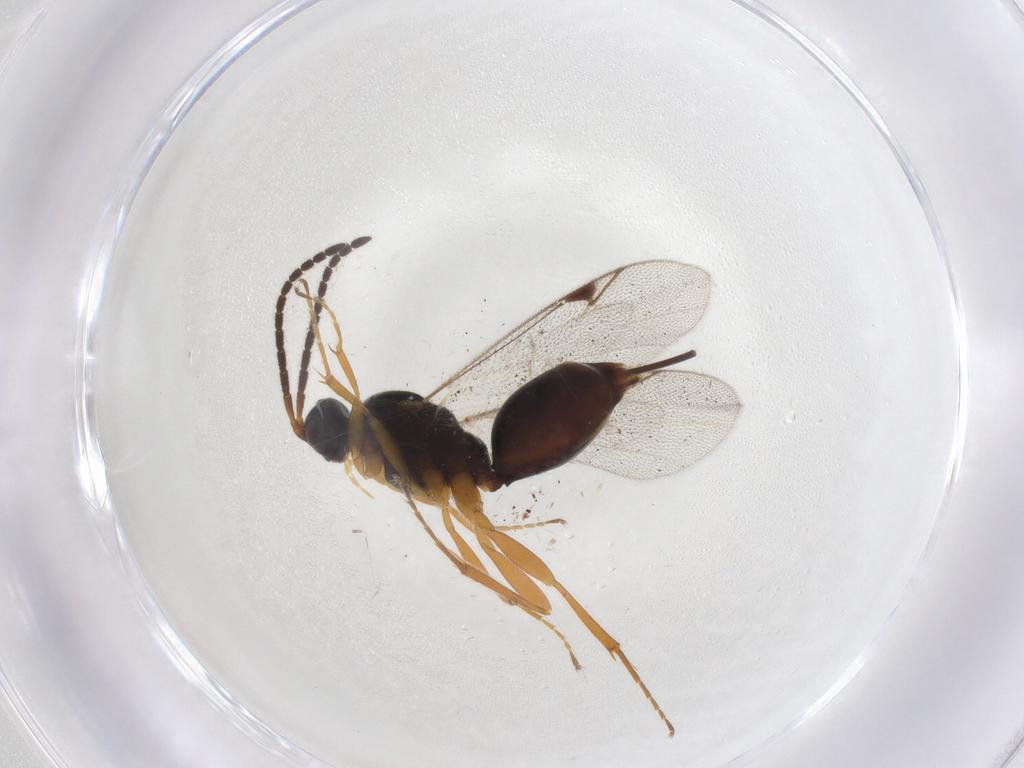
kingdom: Animalia
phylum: Arthropoda
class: Insecta
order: Hymenoptera
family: Proctotrupidae
